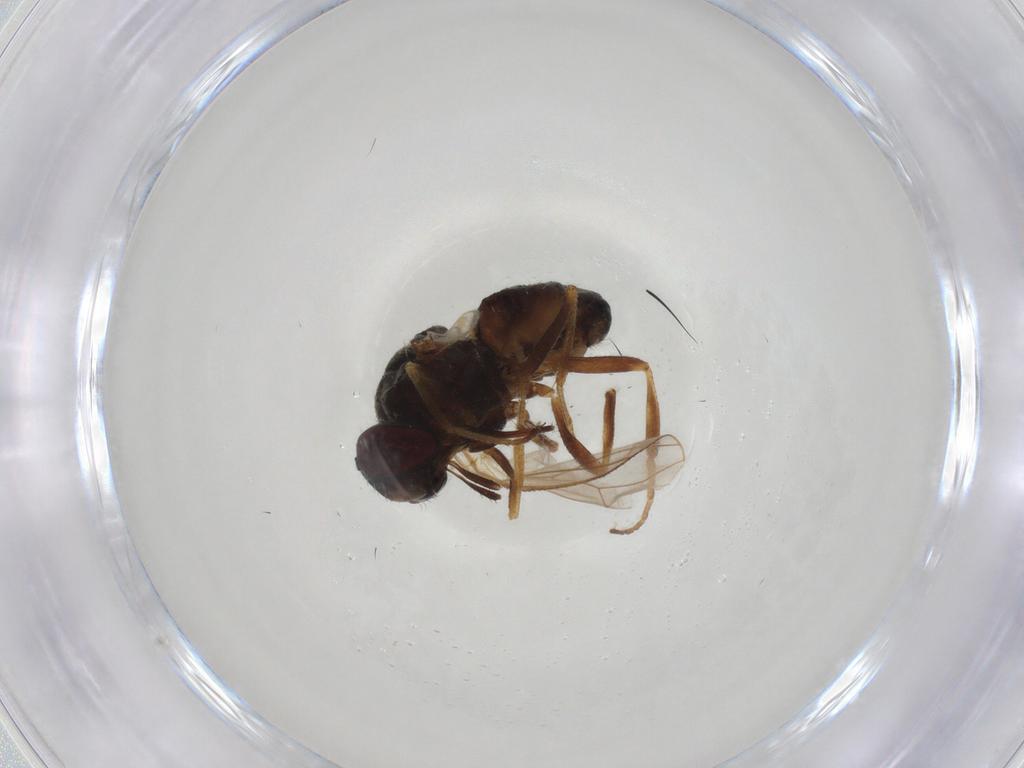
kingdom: Animalia
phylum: Arthropoda
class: Insecta
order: Diptera
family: Muscidae
